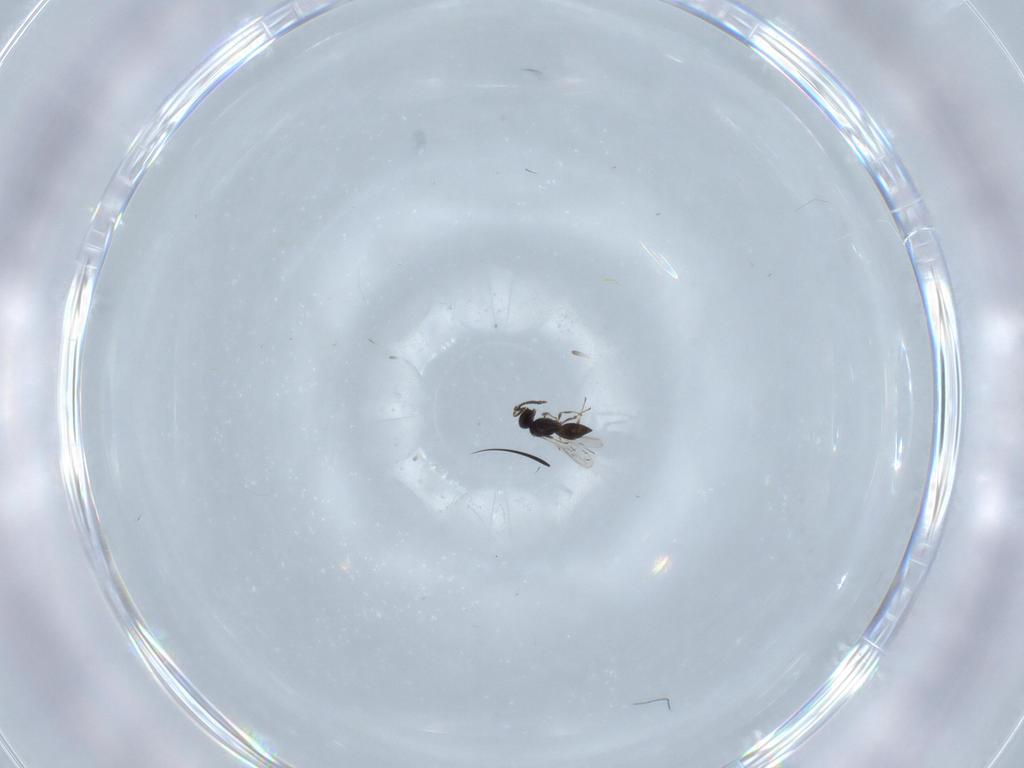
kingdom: Animalia
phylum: Arthropoda
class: Insecta
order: Hymenoptera
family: Scelionidae
